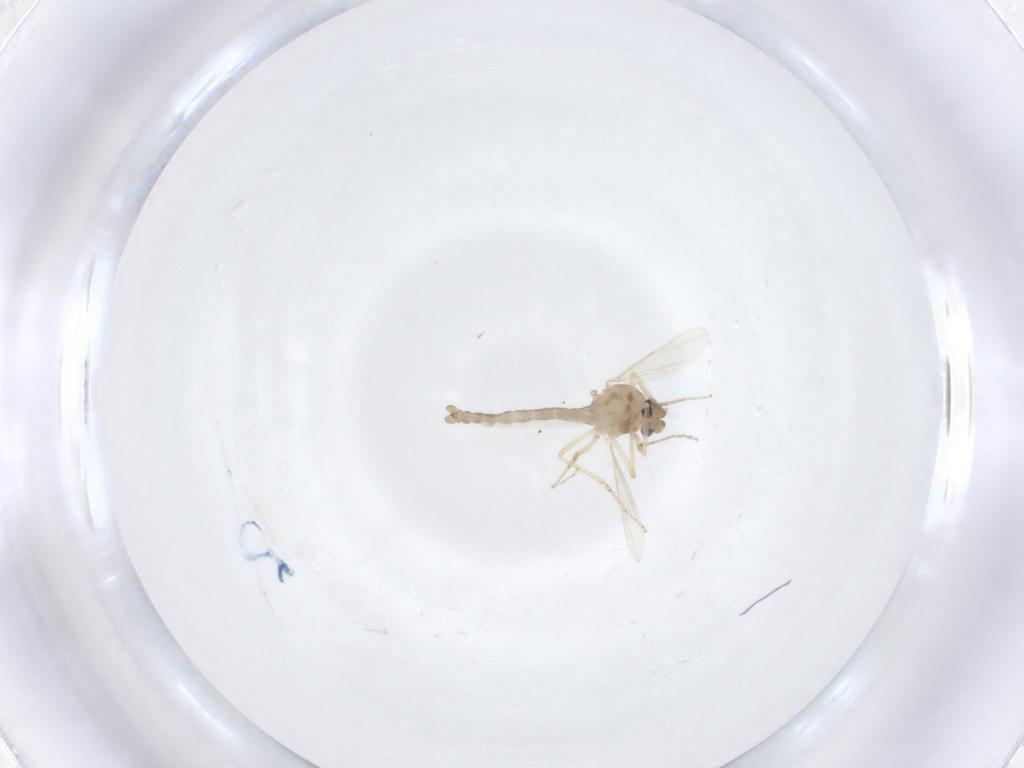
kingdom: Animalia
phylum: Arthropoda
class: Insecta
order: Diptera
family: Ceratopogonidae
